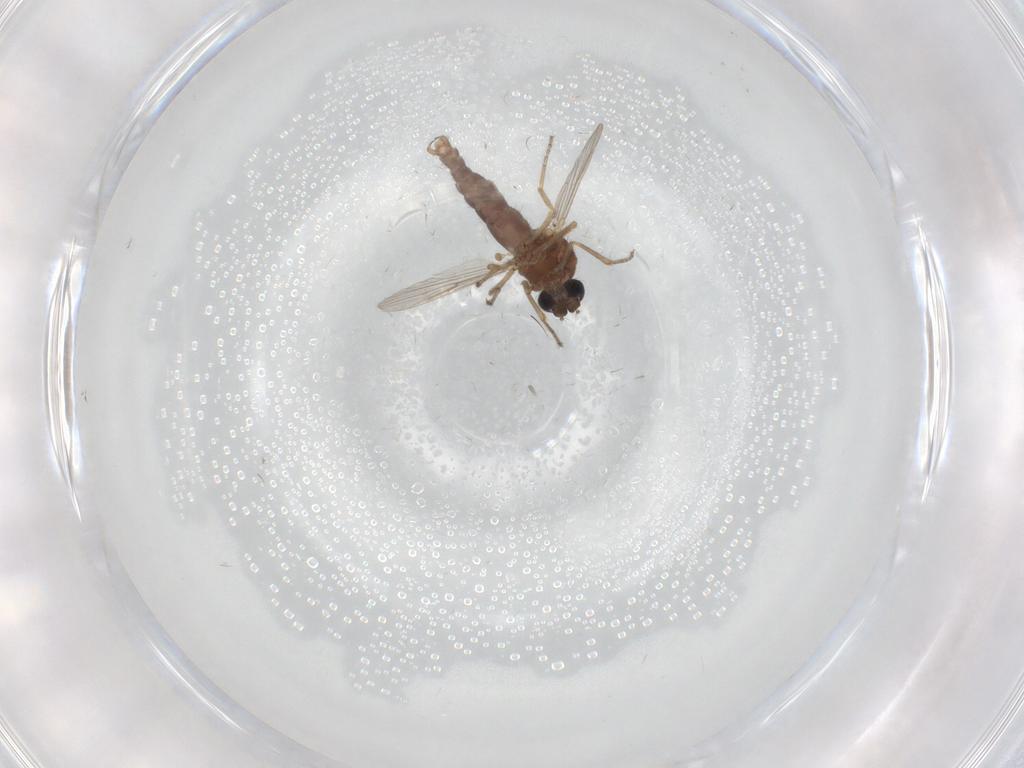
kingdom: Animalia
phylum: Arthropoda
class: Insecta
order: Diptera
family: Ceratopogonidae
